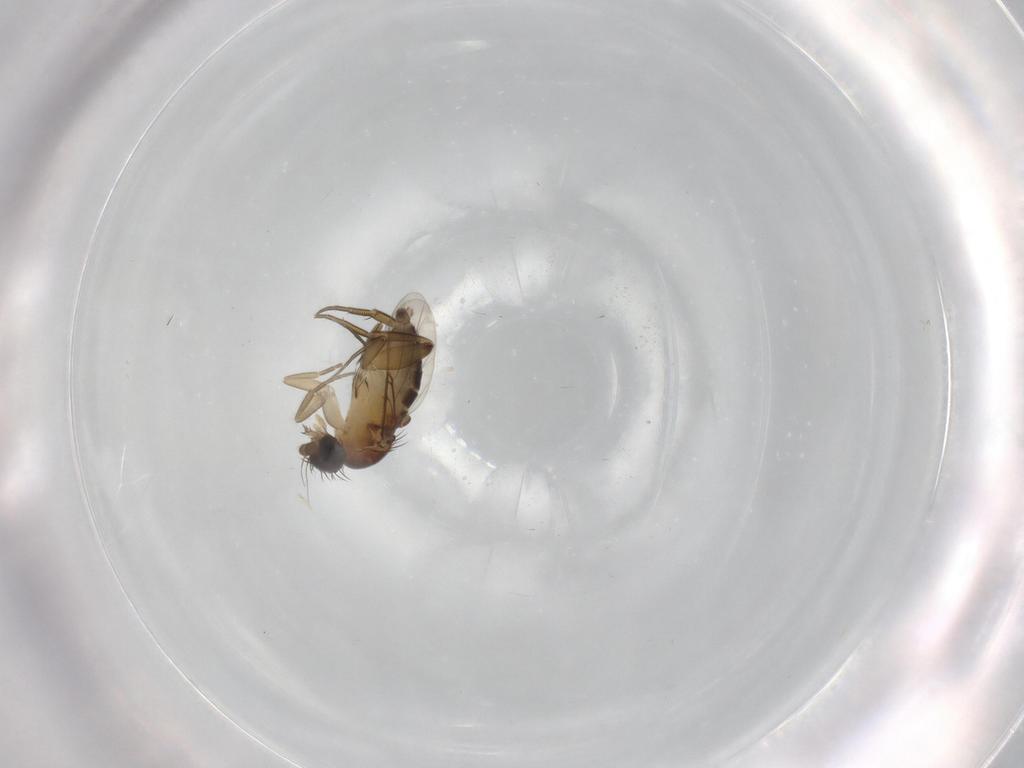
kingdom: Animalia
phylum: Arthropoda
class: Insecta
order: Diptera
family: Phoridae
